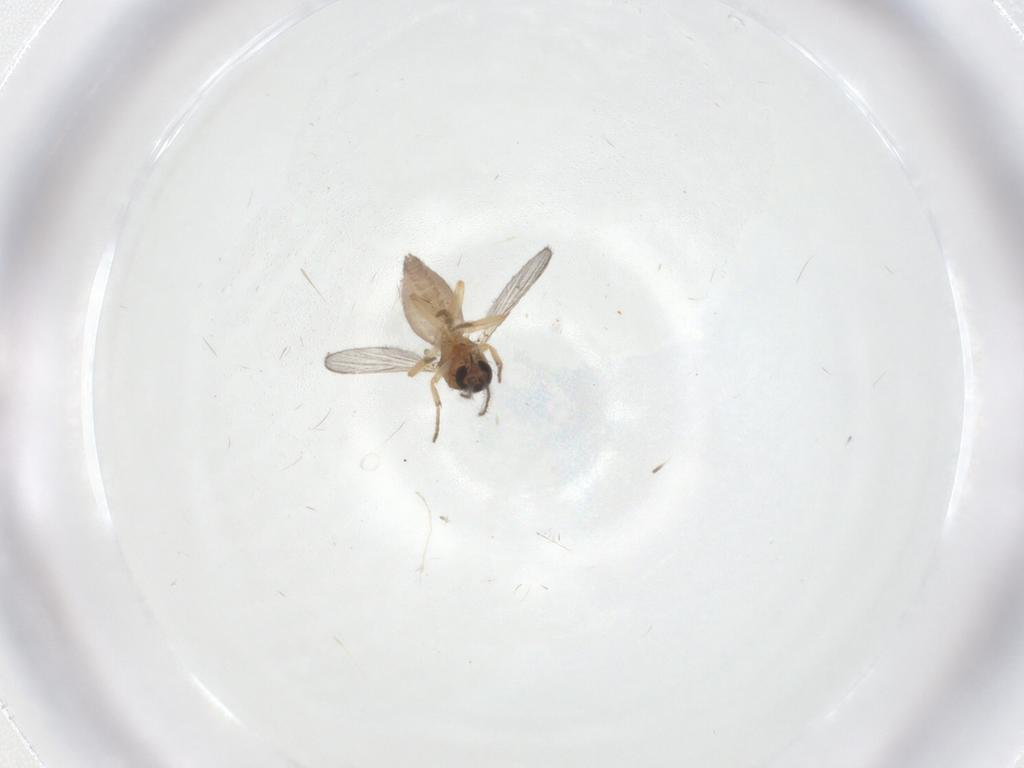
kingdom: Animalia
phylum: Arthropoda
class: Insecta
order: Diptera
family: Ceratopogonidae
